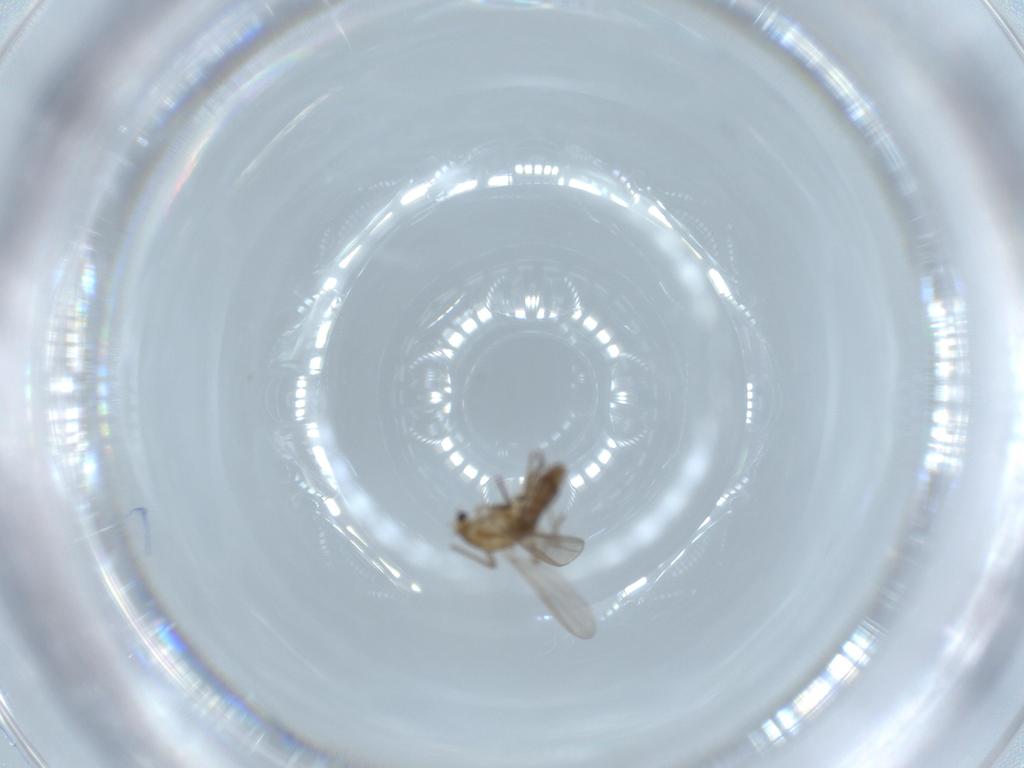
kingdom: Animalia
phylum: Arthropoda
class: Insecta
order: Diptera
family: Chironomidae
